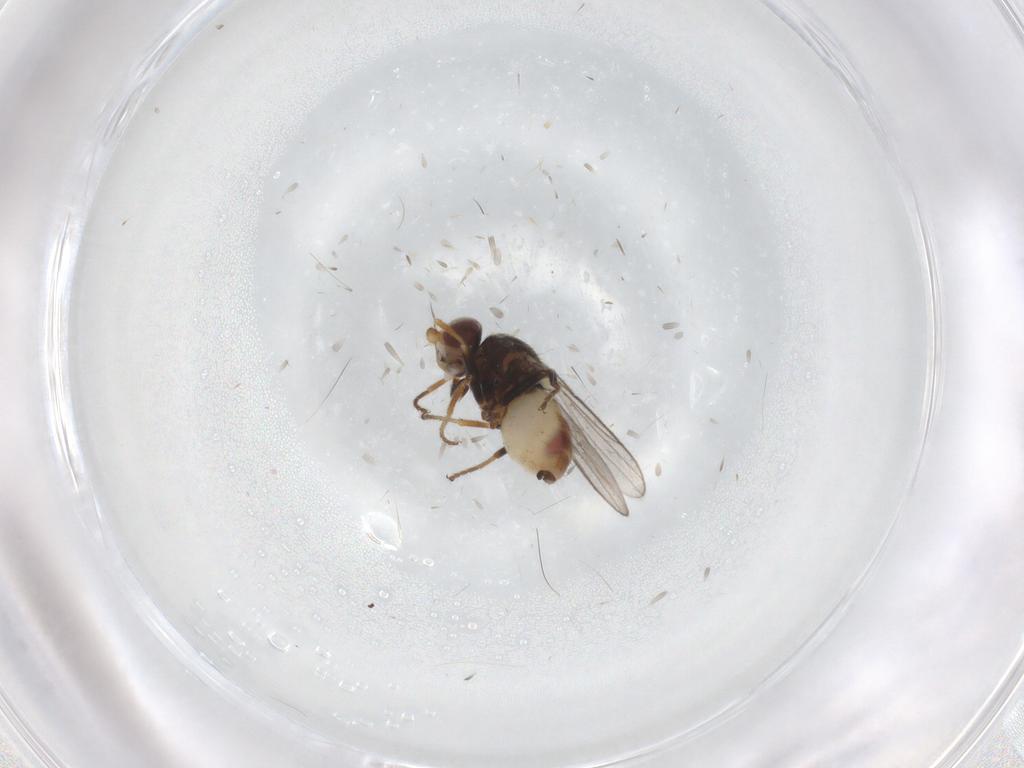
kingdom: Animalia
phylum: Arthropoda
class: Insecta
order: Diptera
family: Chloropidae
